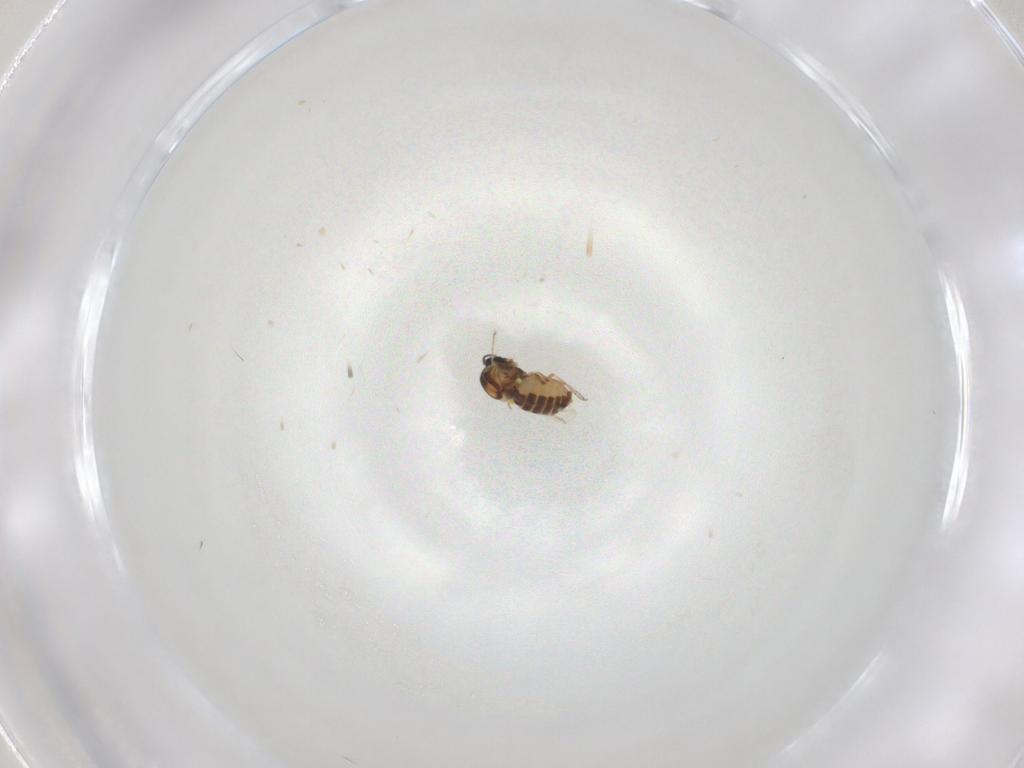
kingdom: Animalia
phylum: Arthropoda
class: Insecta
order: Diptera
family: Ceratopogonidae
